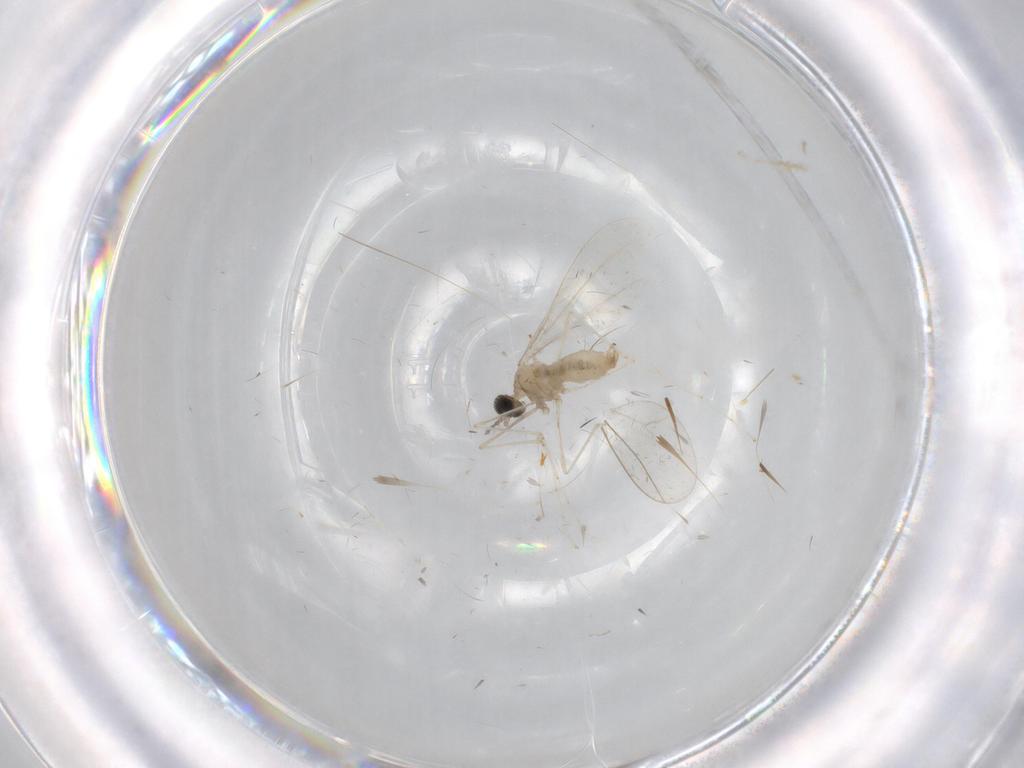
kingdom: Animalia
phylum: Arthropoda
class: Insecta
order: Diptera
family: Cecidomyiidae
